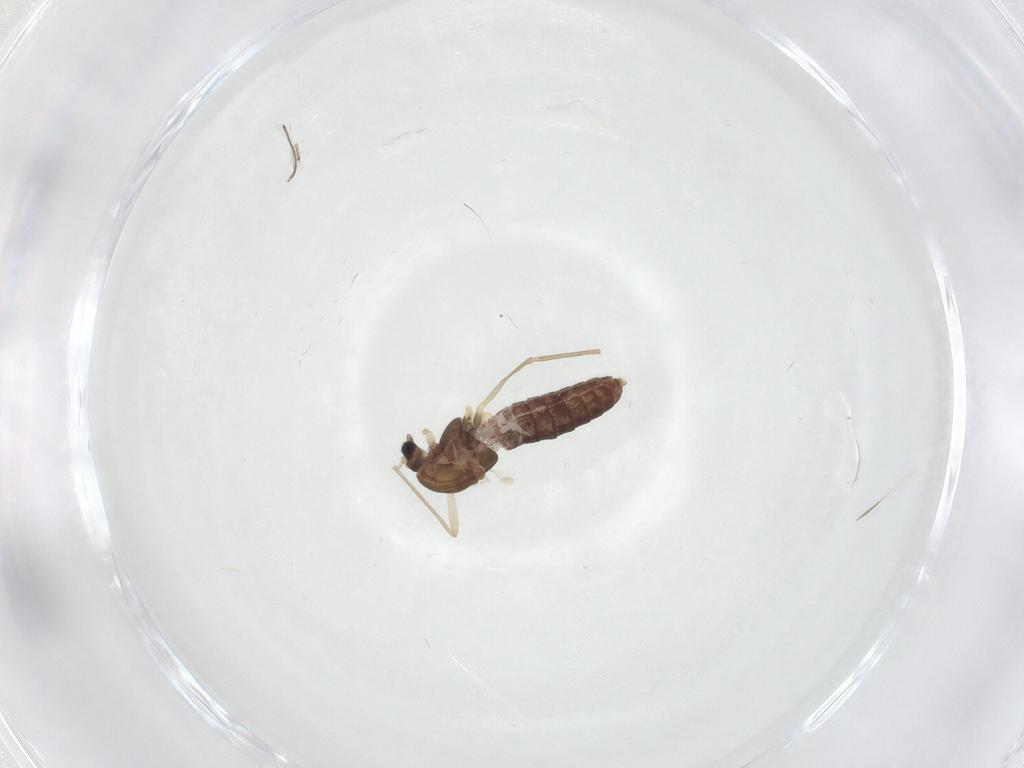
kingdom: Animalia
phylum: Arthropoda
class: Insecta
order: Diptera
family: Chironomidae
